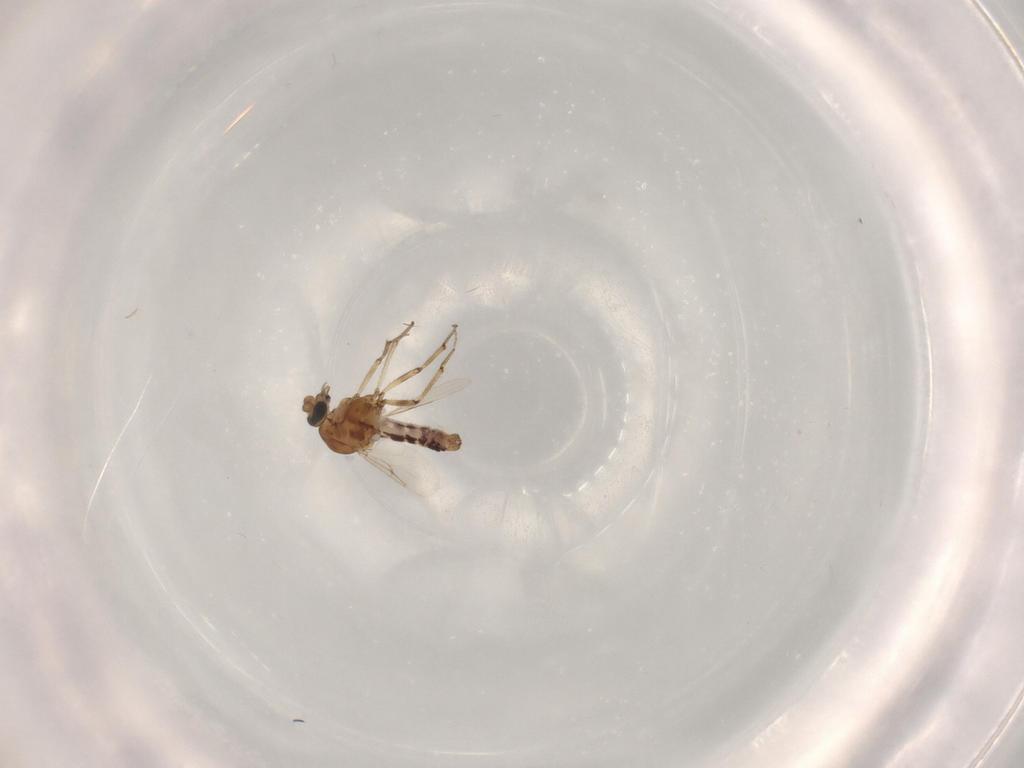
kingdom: Animalia
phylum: Arthropoda
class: Insecta
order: Diptera
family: Ceratopogonidae
